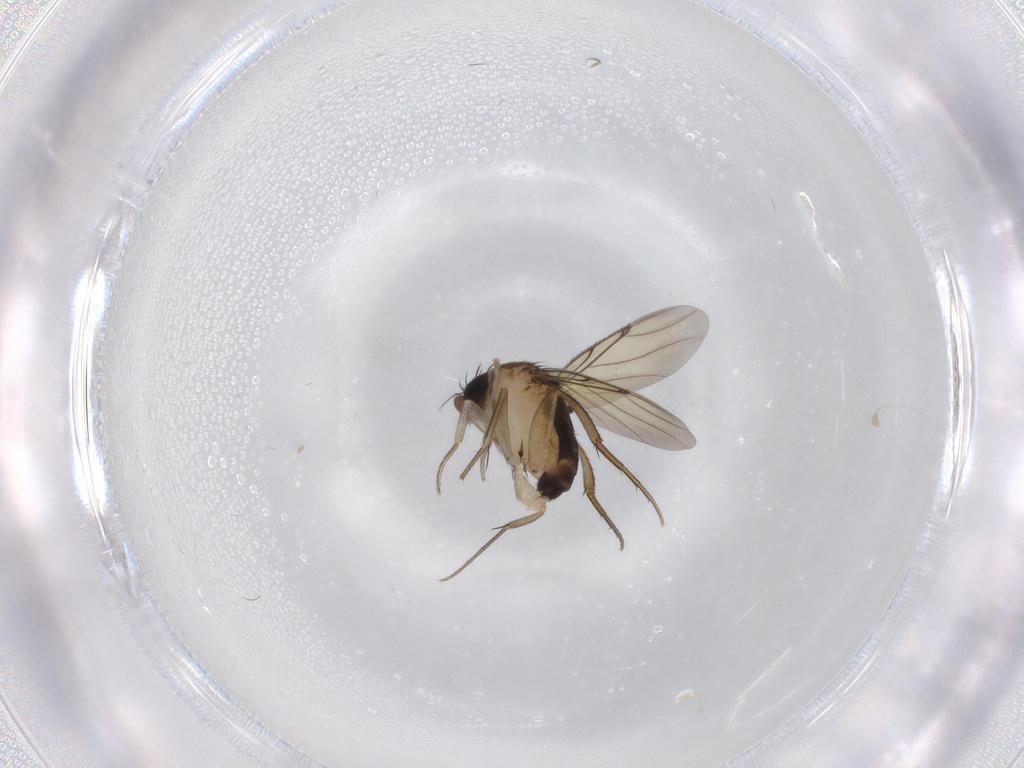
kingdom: Animalia
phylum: Arthropoda
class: Insecta
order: Diptera
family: Chironomidae
